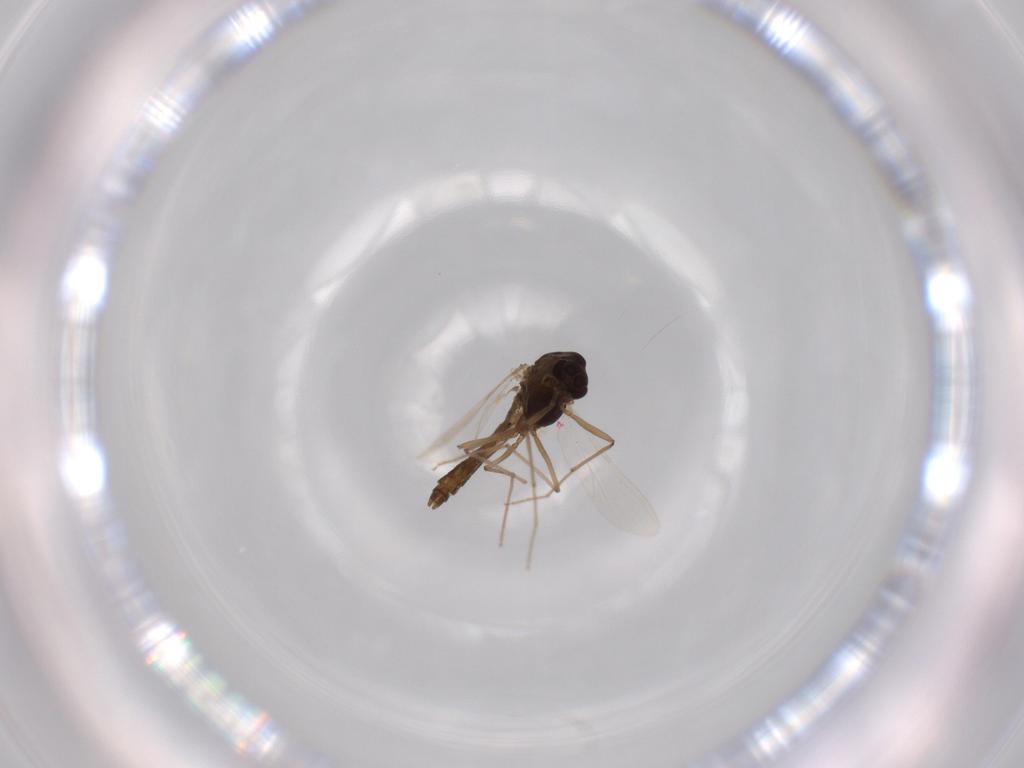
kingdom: Animalia
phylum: Arthropoda
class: Insecta
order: Diptera
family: Chironomidae
